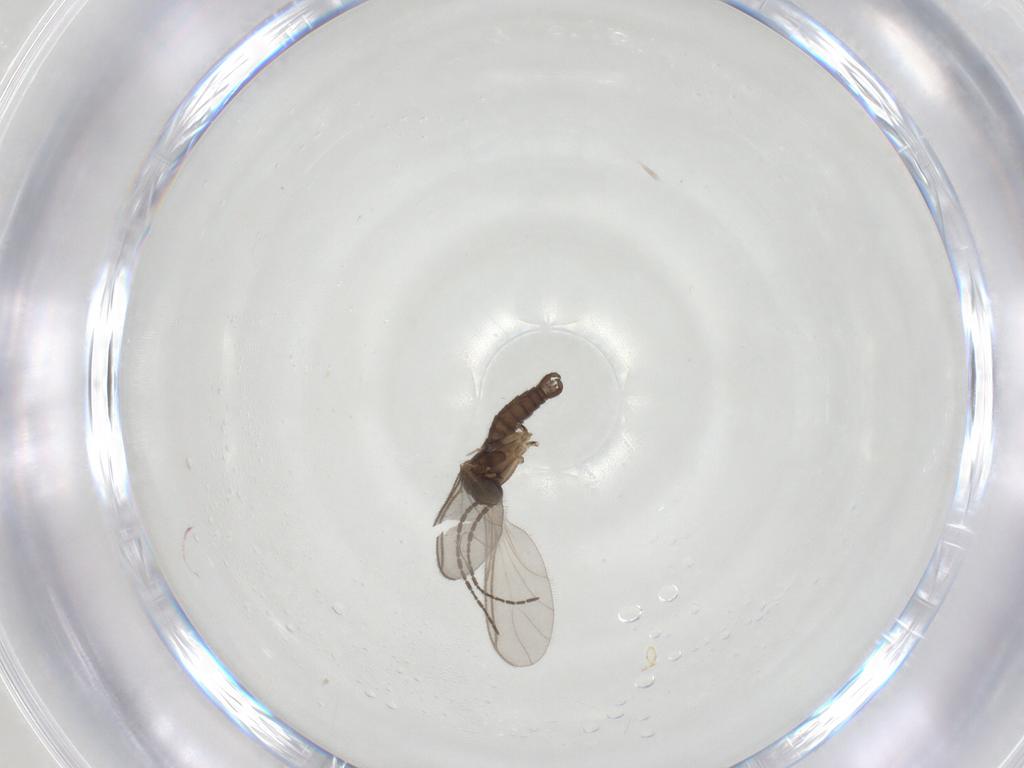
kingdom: Animalia
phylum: Arthropoda
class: Insecta
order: Diptera
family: Sciaridae
